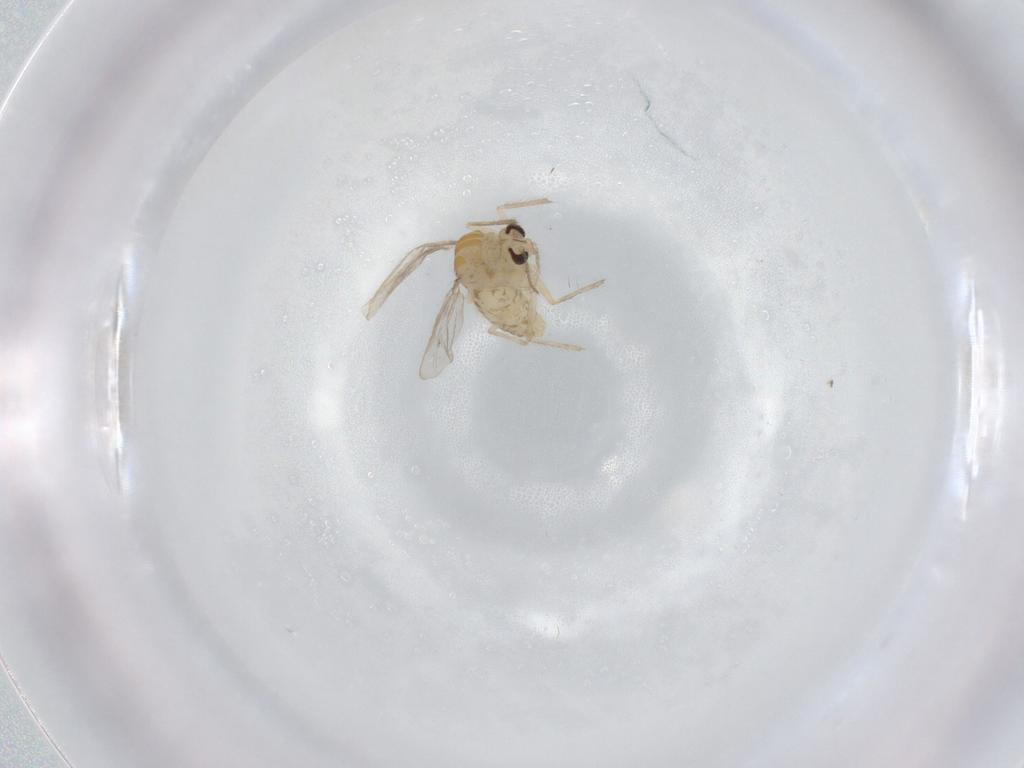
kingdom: Animalia
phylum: Arthropoda
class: Insecta
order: Diptera
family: Chironomidae
